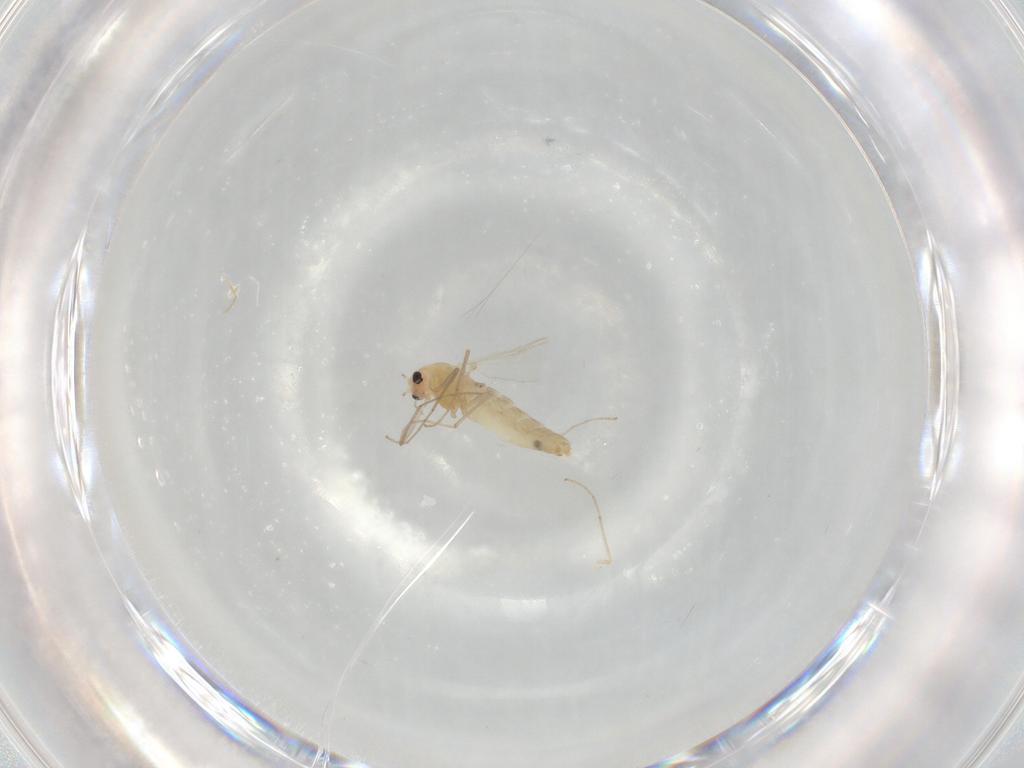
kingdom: Animalia
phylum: Arthropoda
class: Insecta
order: Diptera
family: Chironomidae
